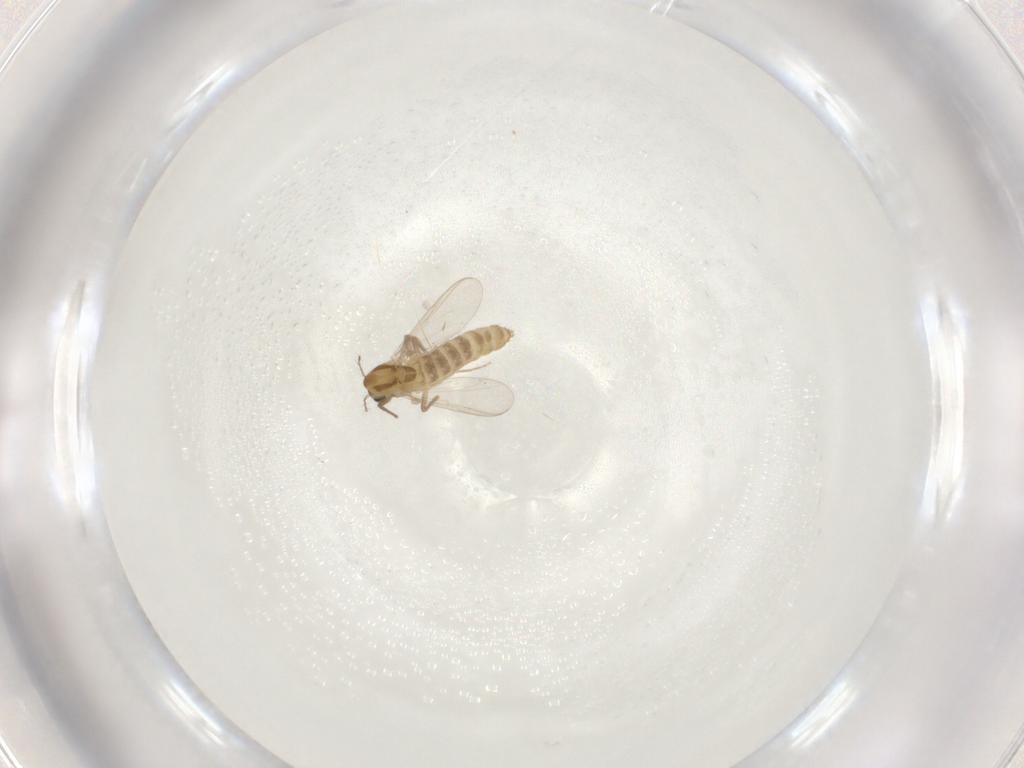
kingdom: Animalia
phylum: Arthropoda
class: Insecta
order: Diptera
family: Chironomidae
